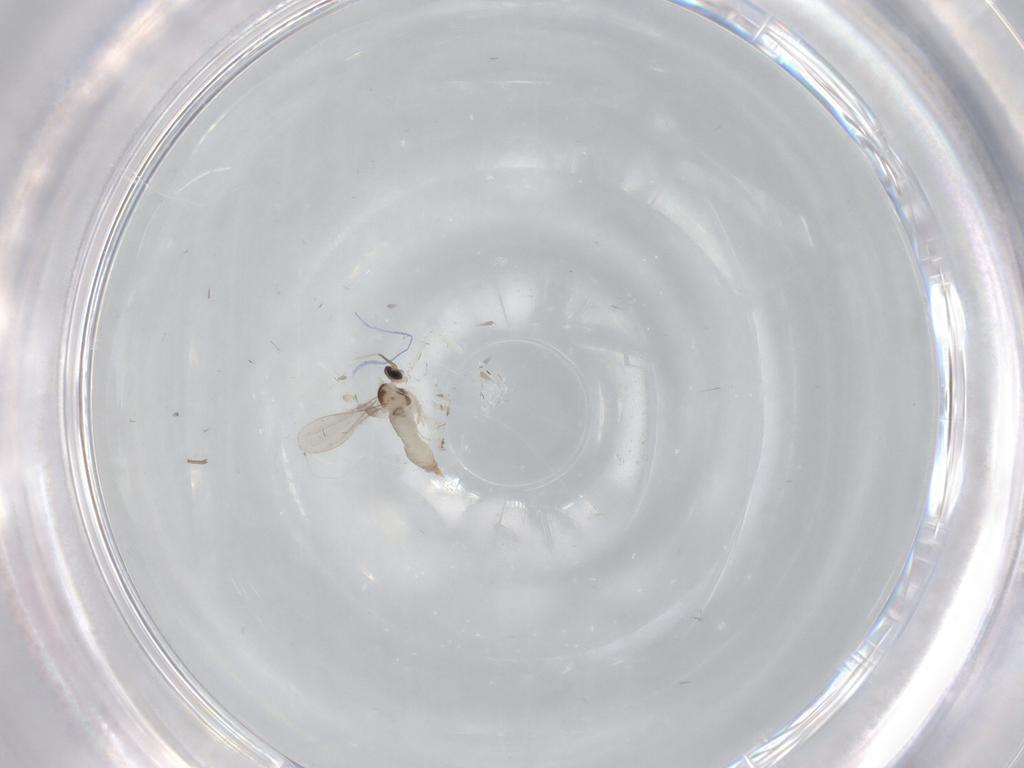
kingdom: Animalia
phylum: Arthropoda
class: Insecta
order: Diptera
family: Psychodidae
